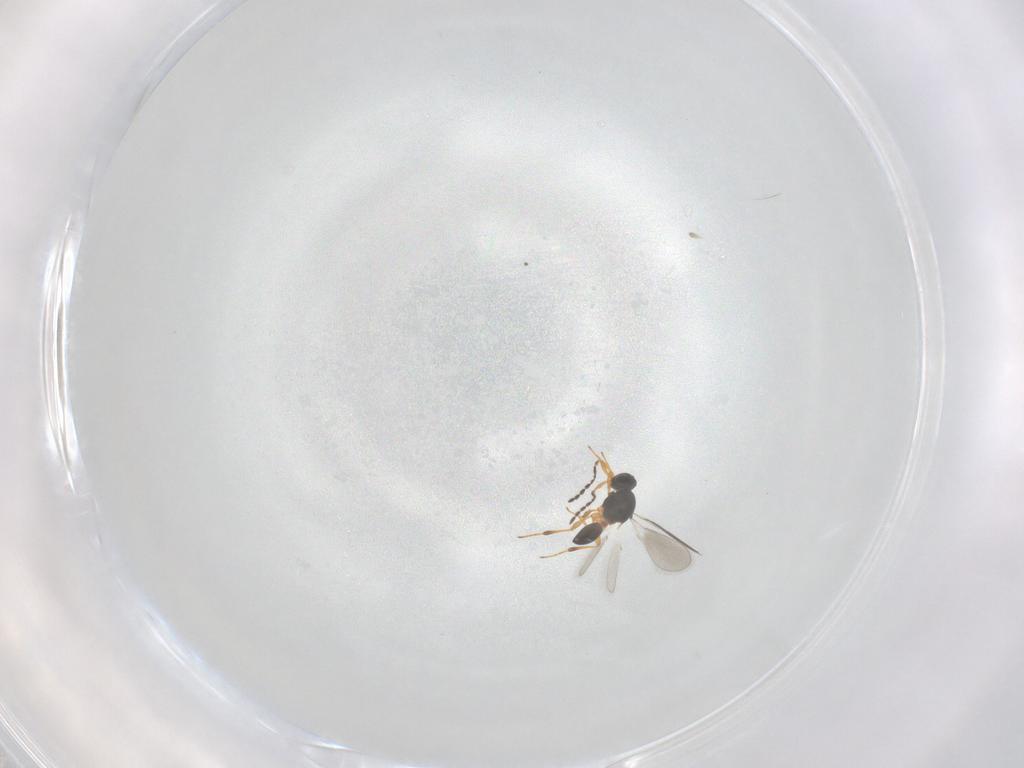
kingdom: Animalia
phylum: Arthropoda
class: Insecta
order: Hymenoptera
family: Platygastridae
